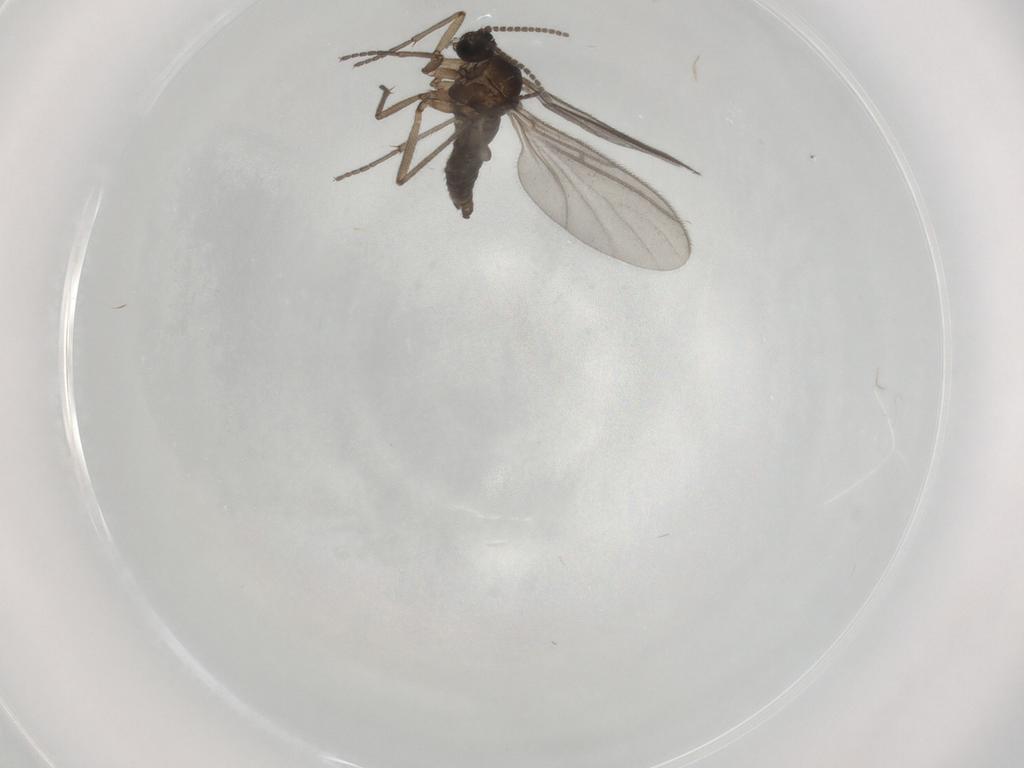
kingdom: Animalia
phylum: Arthropoda
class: Insecta
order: Diptera
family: Sciaridae
